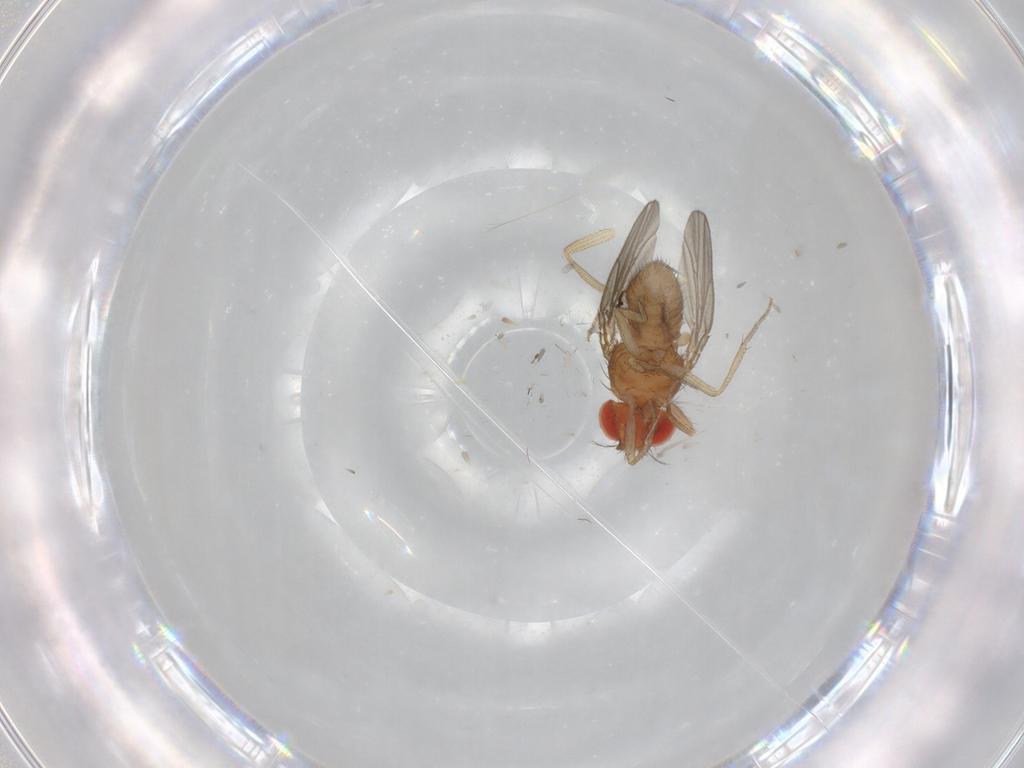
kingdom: Animalia
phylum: Arthropoda
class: Insecta
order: Diptera
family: Drosophilidae
